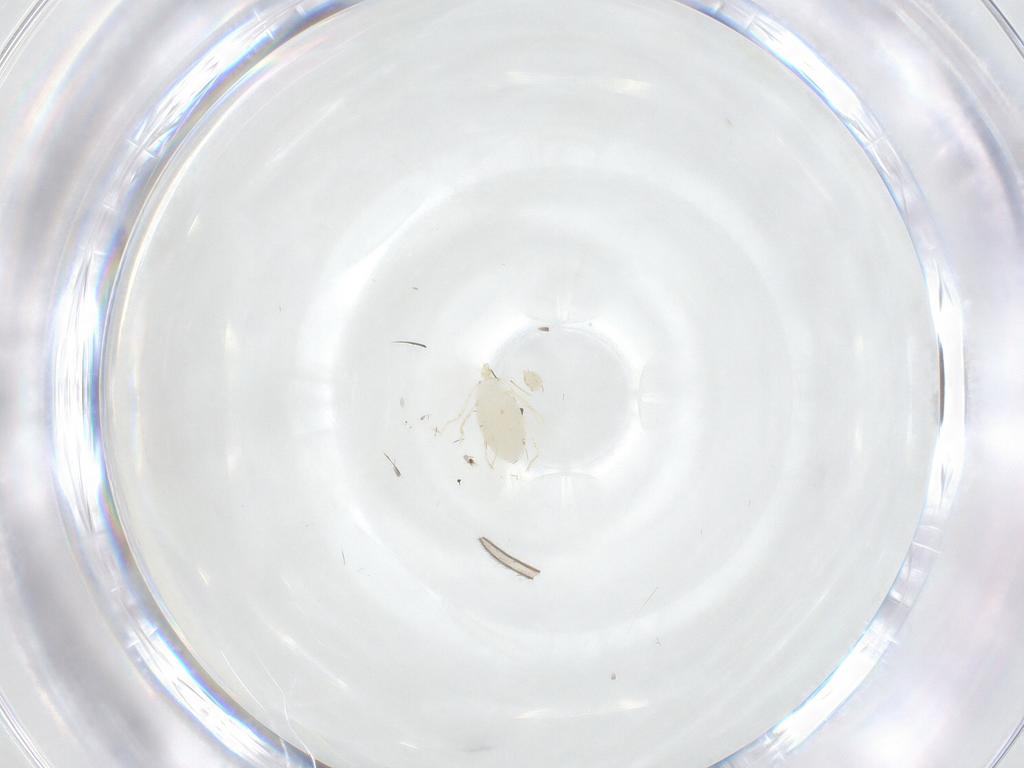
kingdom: Animalia
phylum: Arthropoda
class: Arachnida
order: Trombidiformes
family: Erythraeidae
